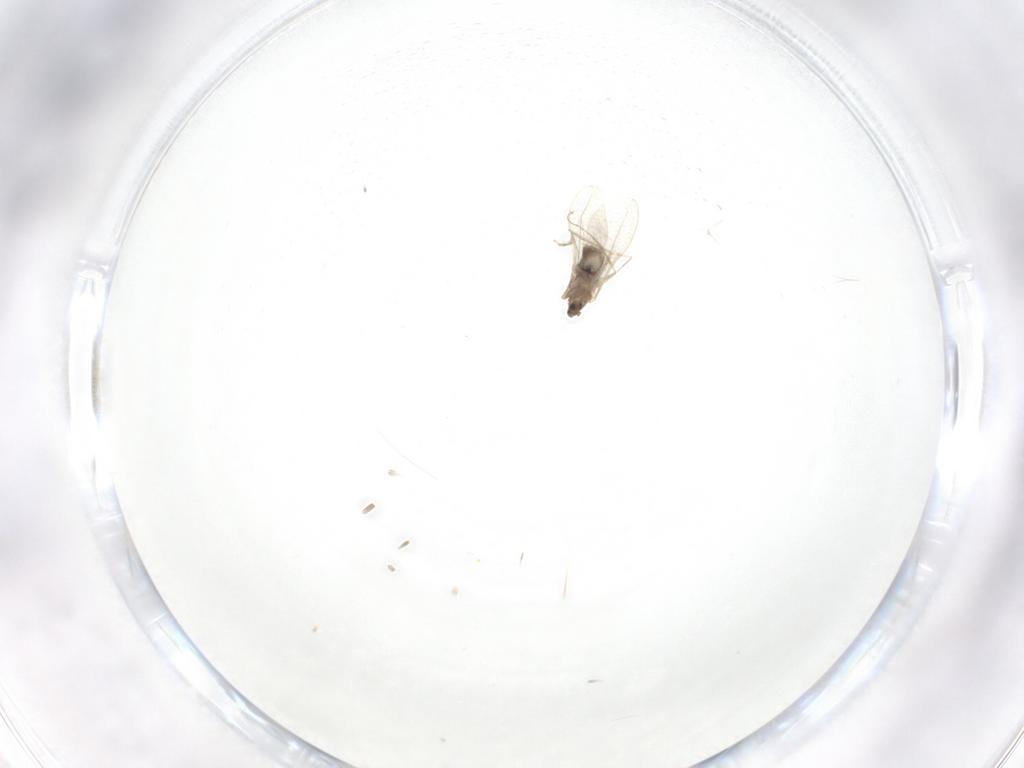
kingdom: Animalia
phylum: Arthropoda
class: Insecta
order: Diptera
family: Cecidomyiidae
